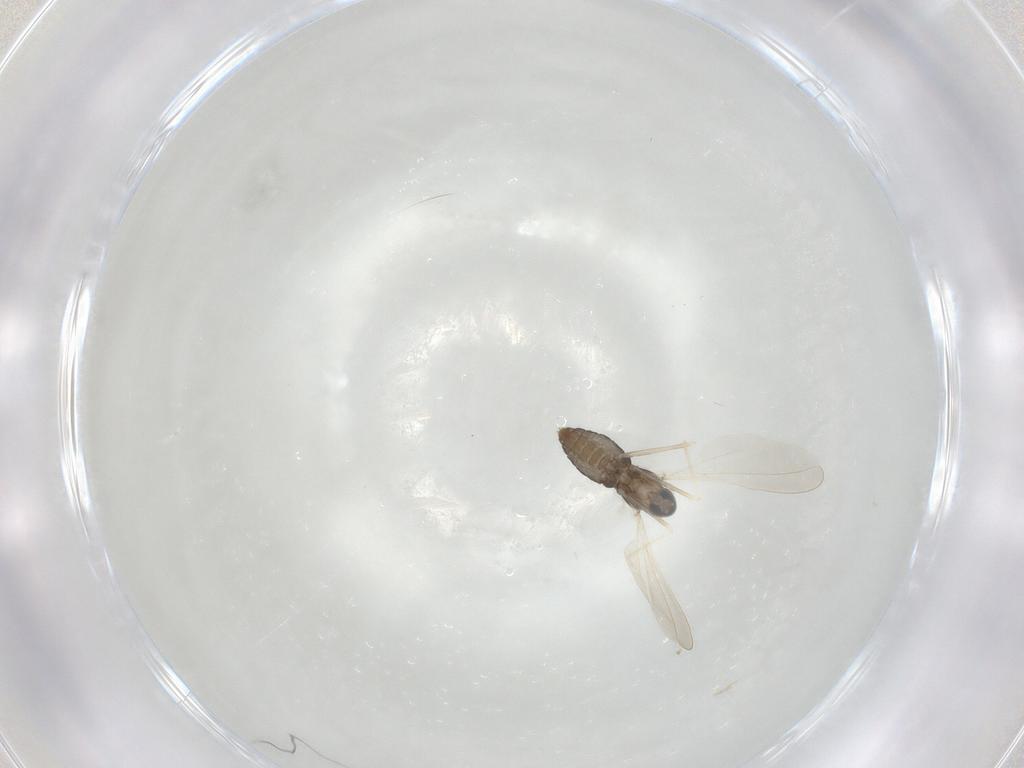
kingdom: Animalia
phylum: Arthropoda
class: Insecta
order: Diptera
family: Cecidomyiidae
